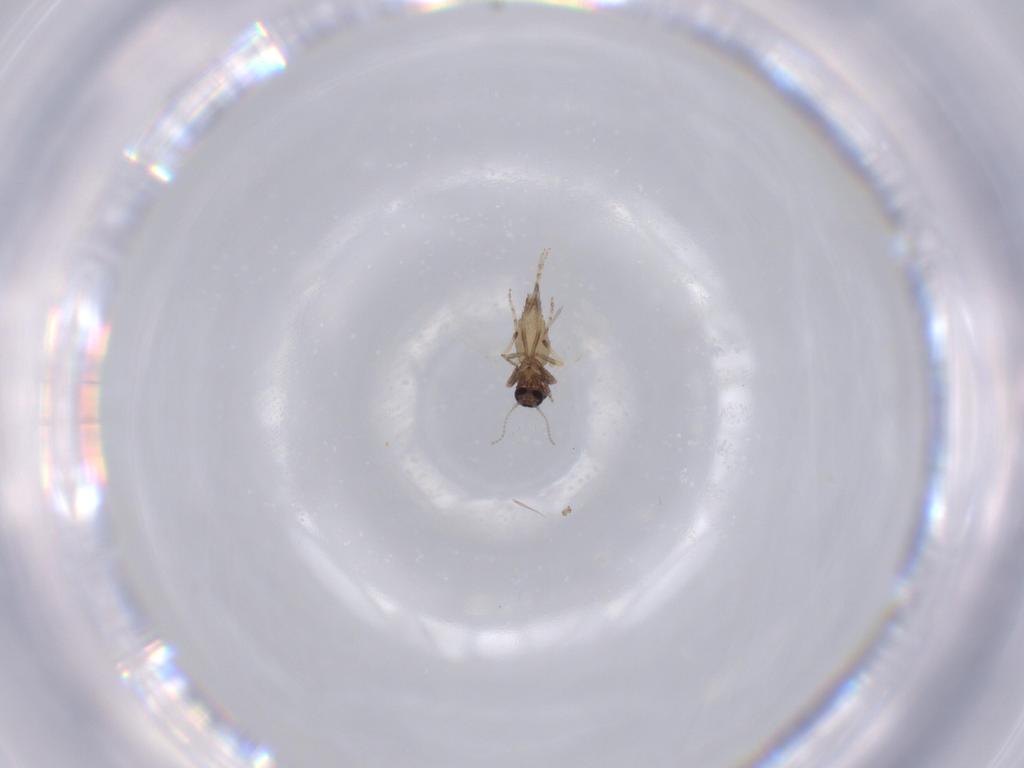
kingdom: Animalia
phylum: Arthropoda
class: Insecta
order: Diptera
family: Ceratopogonidae
